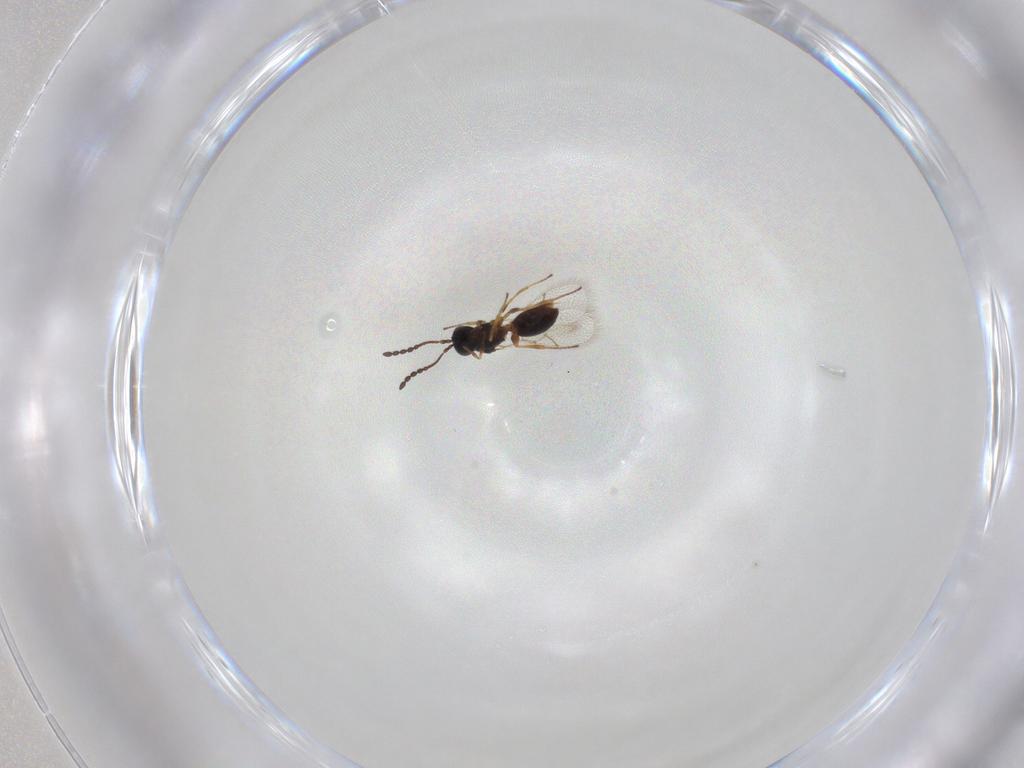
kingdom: Animalia
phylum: Arthropoda
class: Insecta
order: Hymenoptera
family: Figitidae
